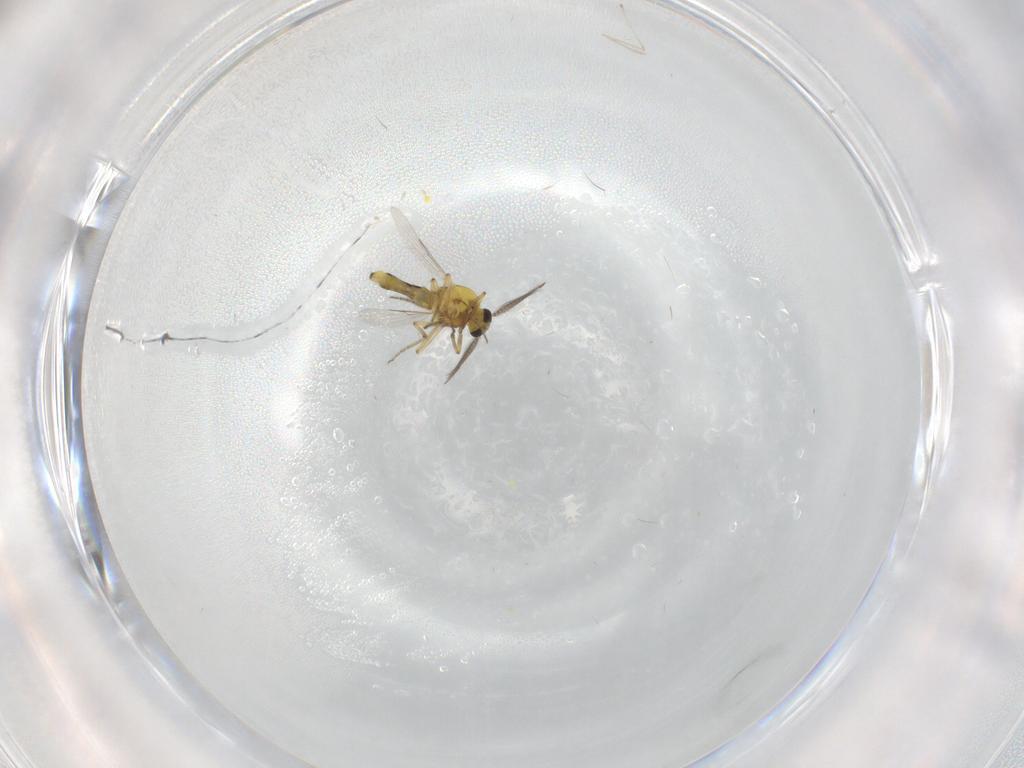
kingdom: Animalia
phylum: Arthropoda
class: Insecta
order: Diptera
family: Ceratopogonidae
